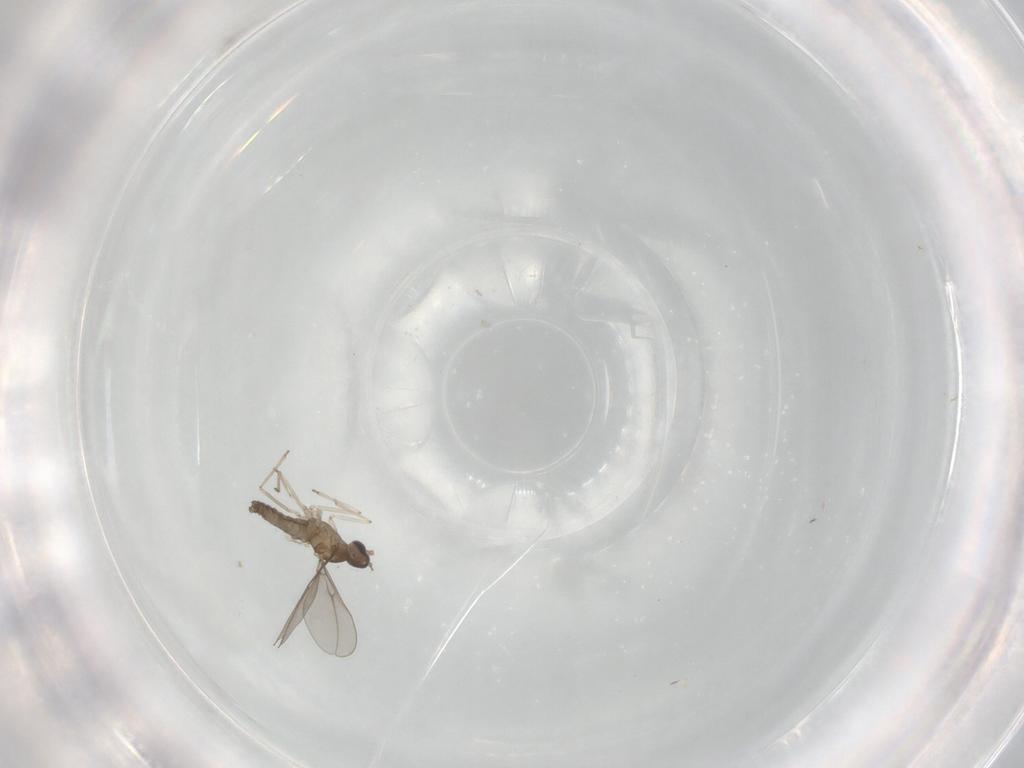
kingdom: Animalia
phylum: Arthropoda
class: Insecta
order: Diptera
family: Cecidomyiidae
